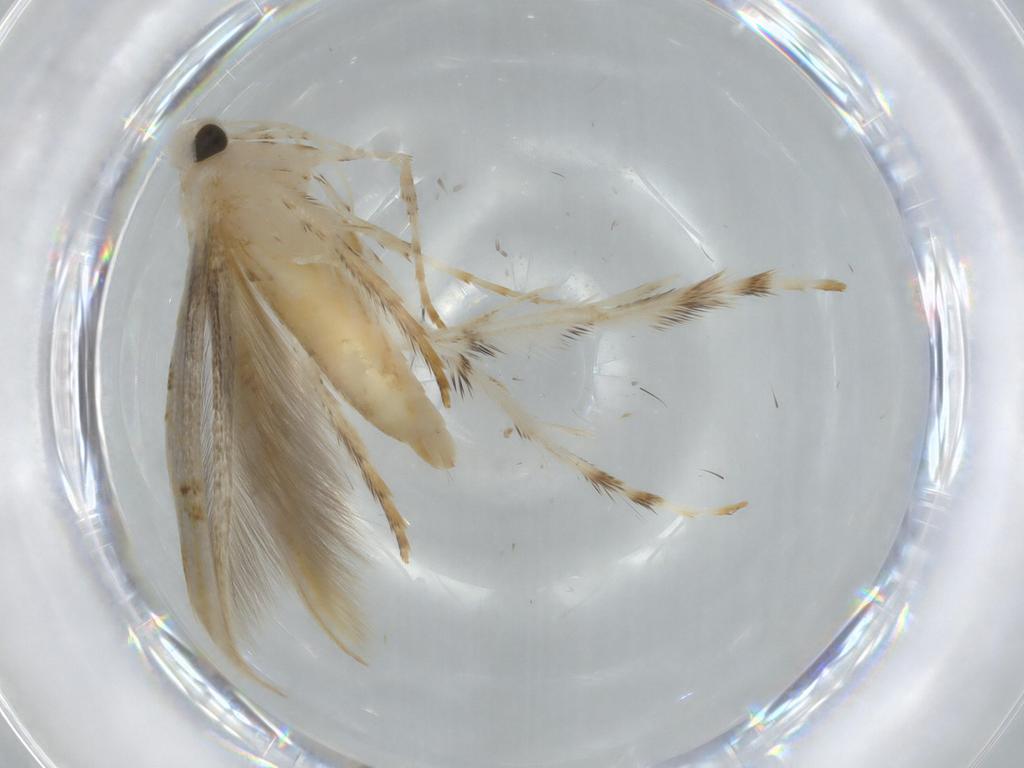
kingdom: Animalia
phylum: Arthropoda
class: Insecta
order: Lepidoptera
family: Gracillariidae
